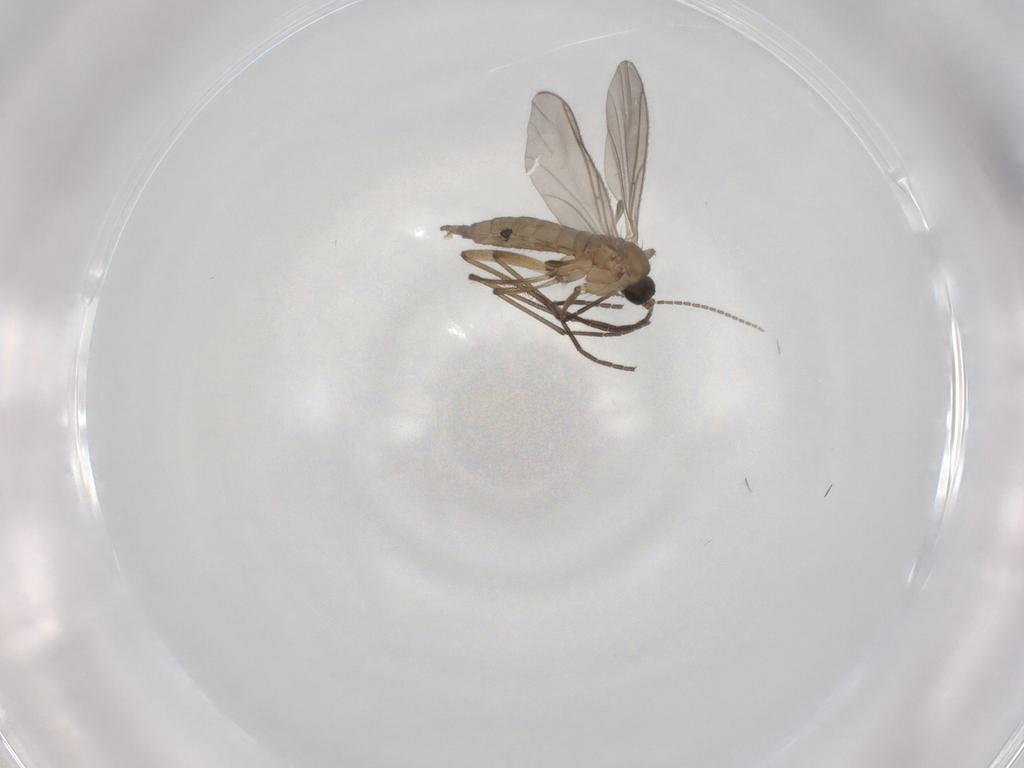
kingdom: Animalia
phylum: Arthropoda
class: Insecta
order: Diptera
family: Sciaridae
